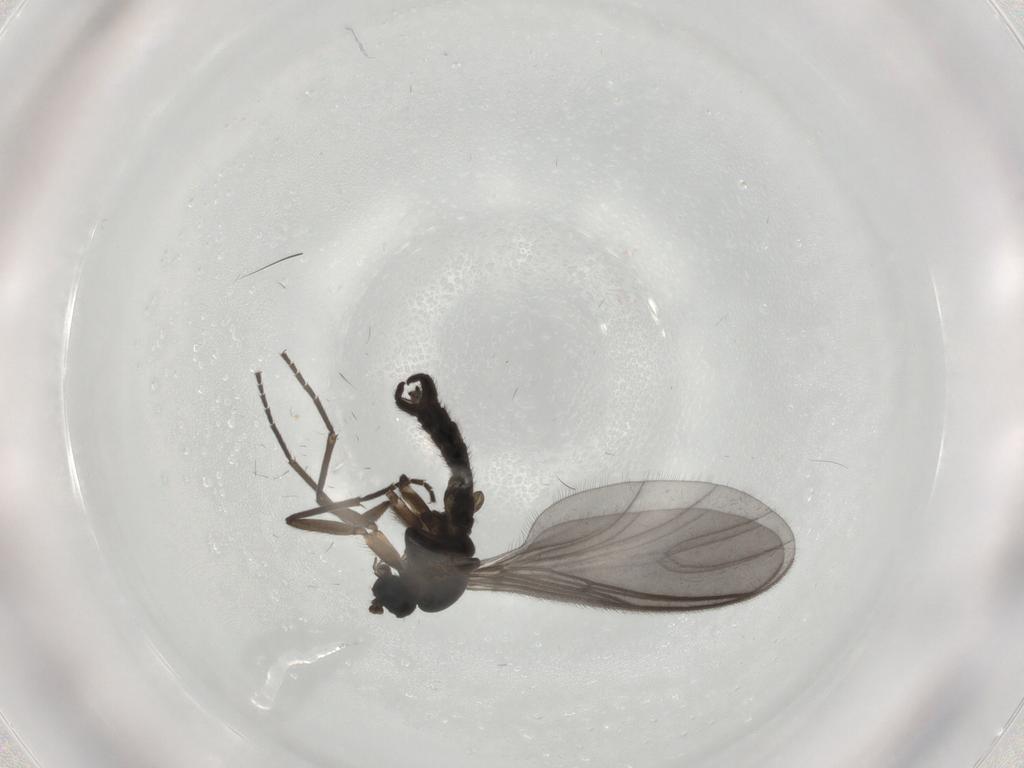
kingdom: Animalia
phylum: Arthropoda
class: Insecta
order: Diptera
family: Sciaridae
